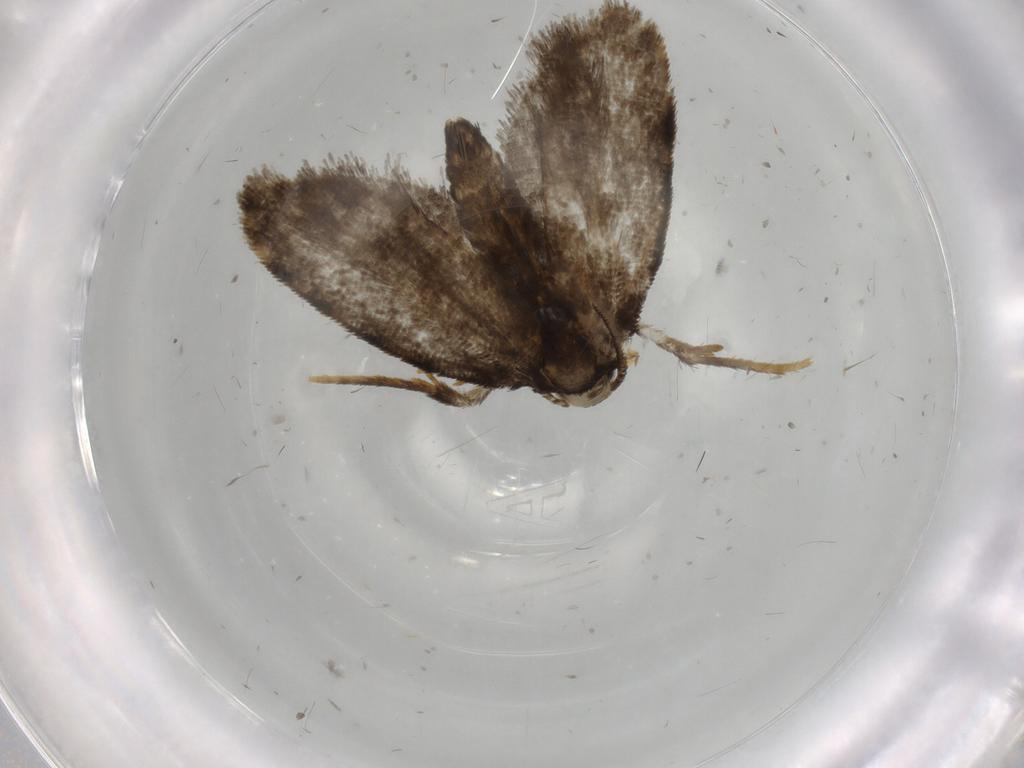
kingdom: Animalia
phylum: Arthropoda
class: Insecta
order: Lepidoptera
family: Psychidae
